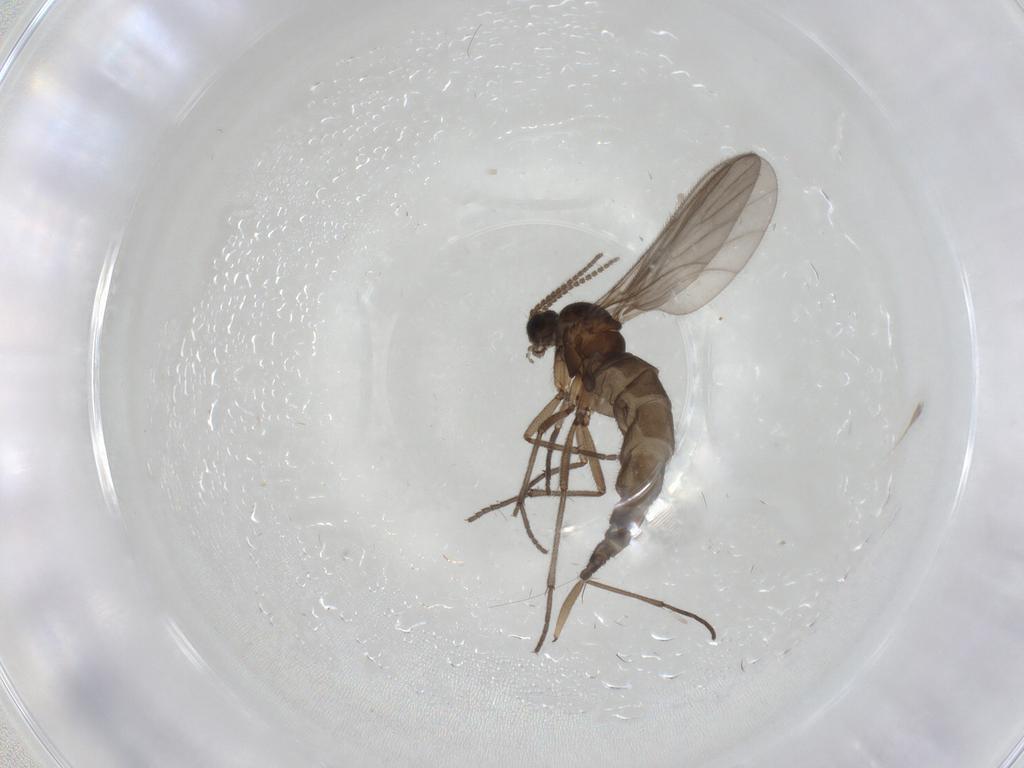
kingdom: Animalia
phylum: Arthropoda
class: Insecta
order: Diptera
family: Sciaridae
